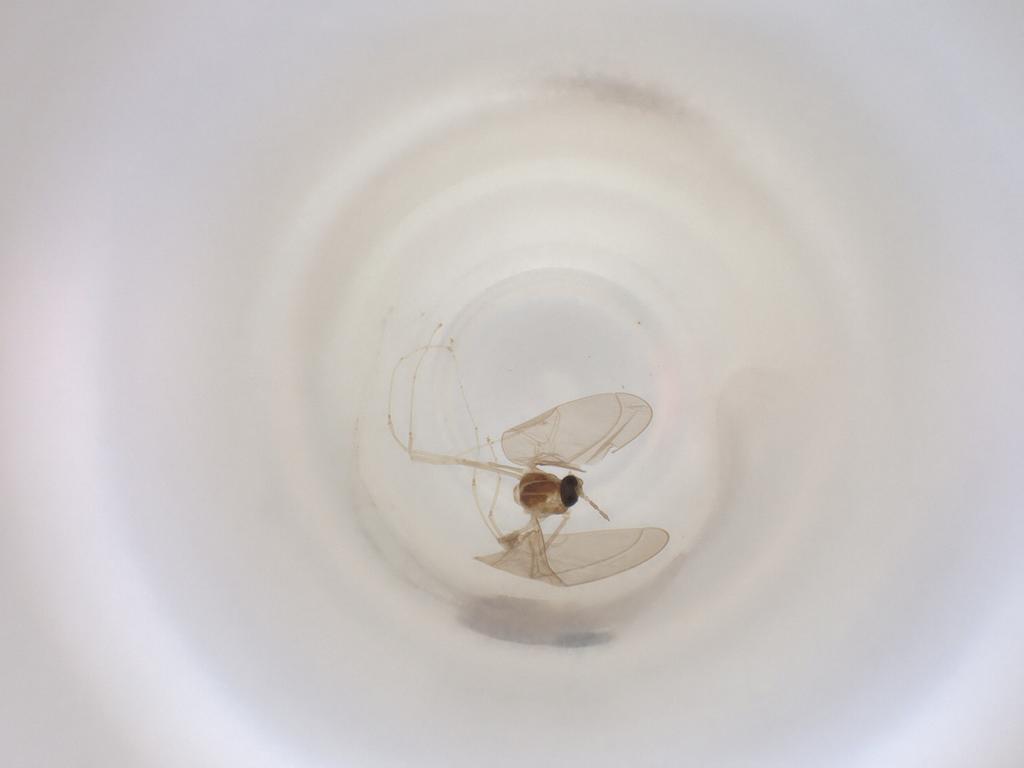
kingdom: Animalia
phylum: Arthropoda
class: Insecta
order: Diptera
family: Cecidomyiidae
